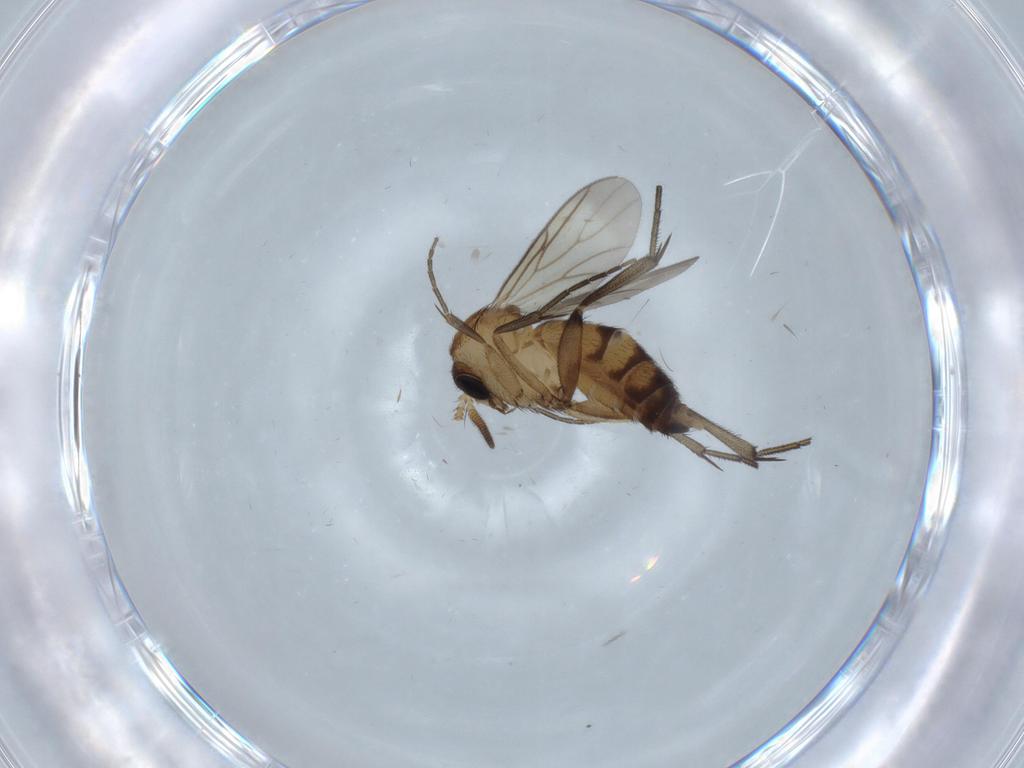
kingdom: Animalia
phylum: Arthropoda
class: Insecta
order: Diptera
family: Mycetophilidae
